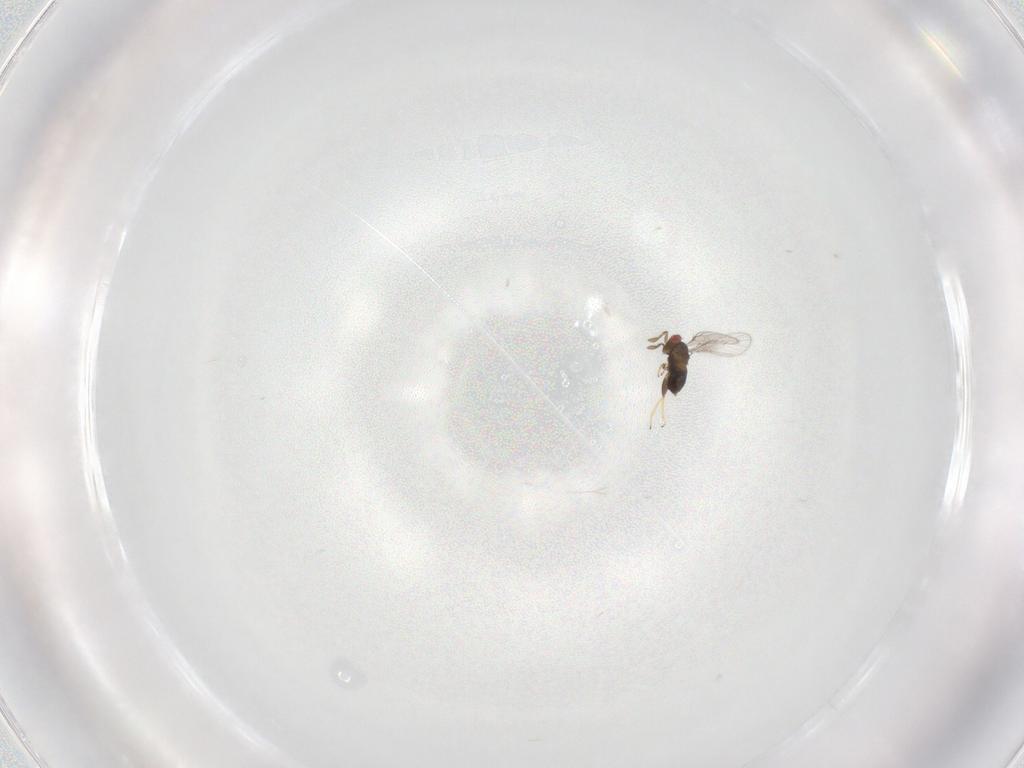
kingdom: Animalia
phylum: Arthropoda
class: Insecta
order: Hymenoptera
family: Trichogrammatidae
